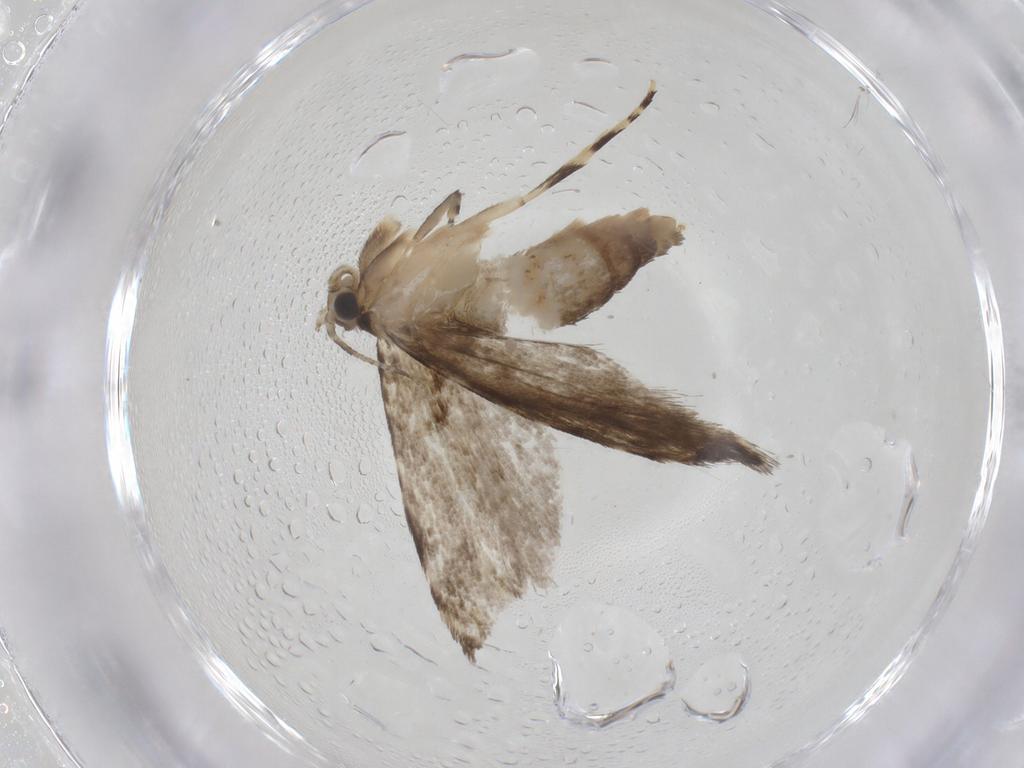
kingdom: Animalia
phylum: Arthropoda
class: Insecta
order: Lepidoptera
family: Tineidae
